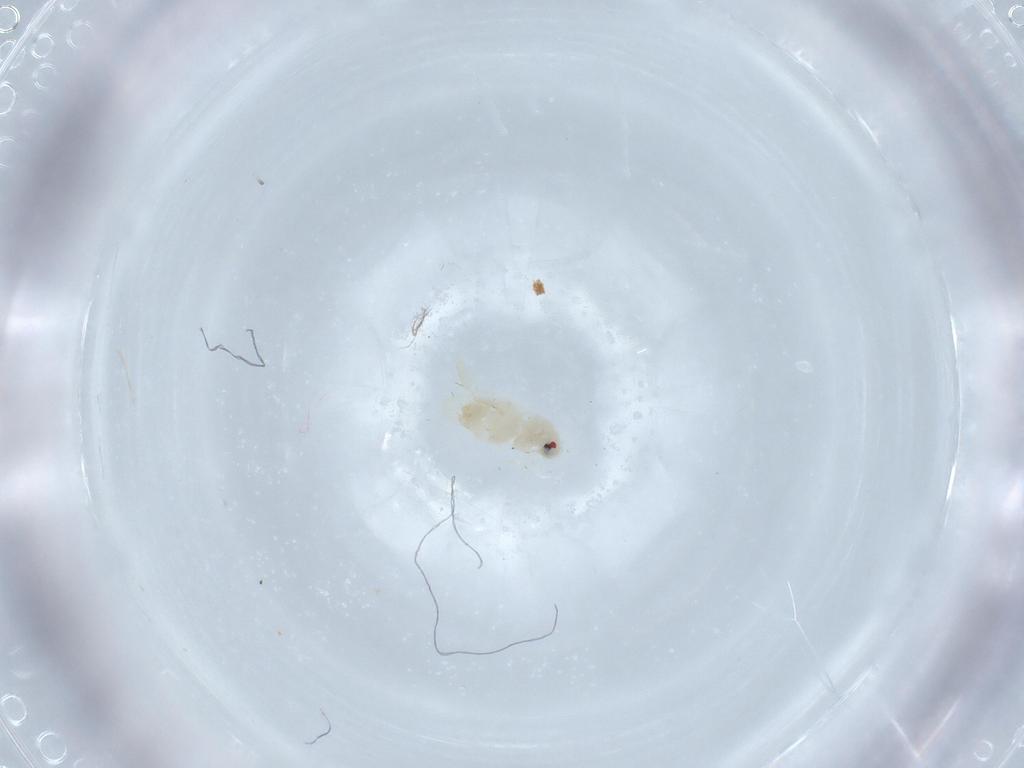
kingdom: Animalia
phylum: Arthropoda
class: Insecta
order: Hemiptera
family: Aleyrodidae
